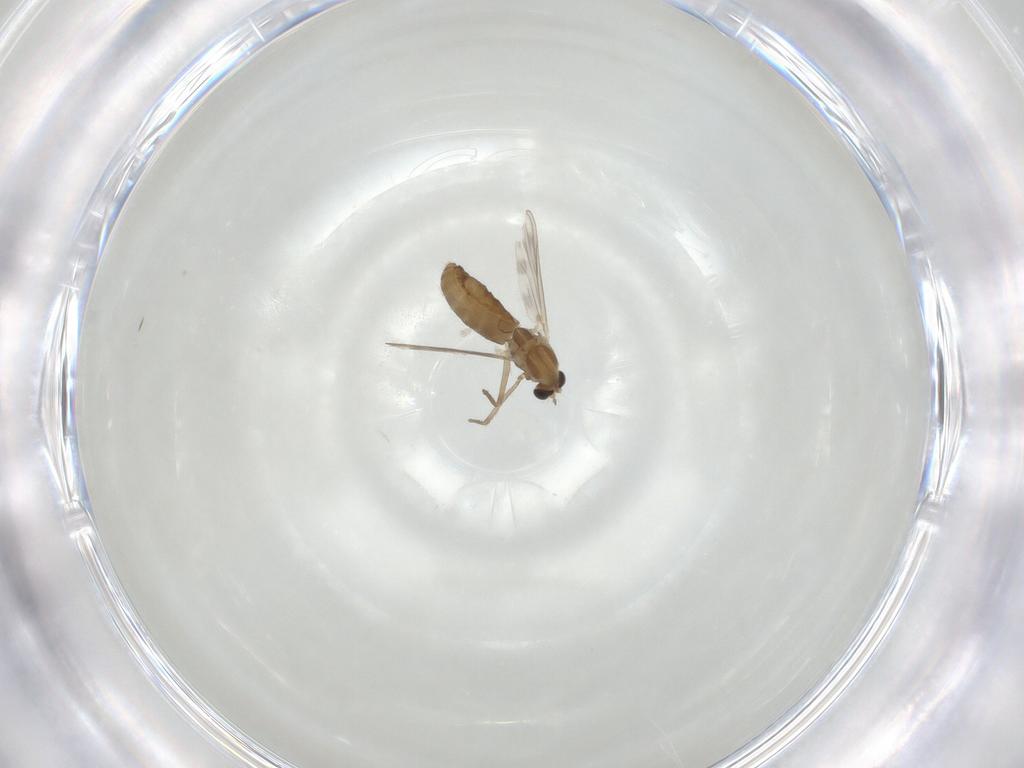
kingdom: Animalia
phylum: Arthropoda
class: Insecta
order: Diptera
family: Chironomidae
